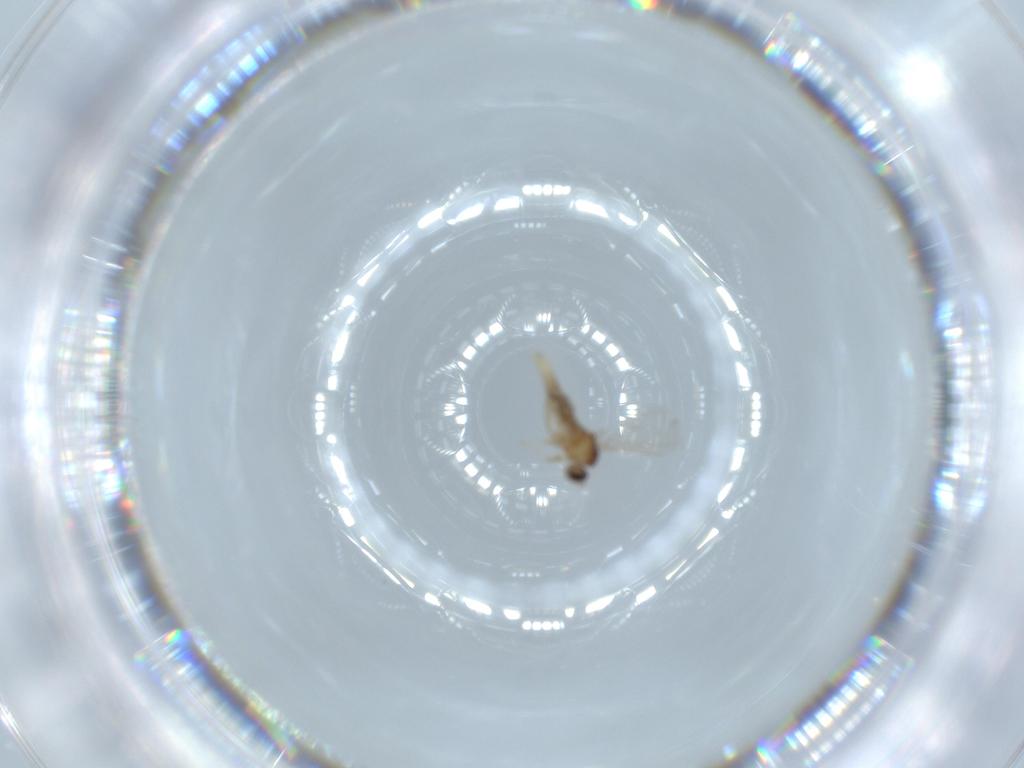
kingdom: Animalia
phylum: Arthropoda
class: Insecta
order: Diptera
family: Cecidomyiidae
